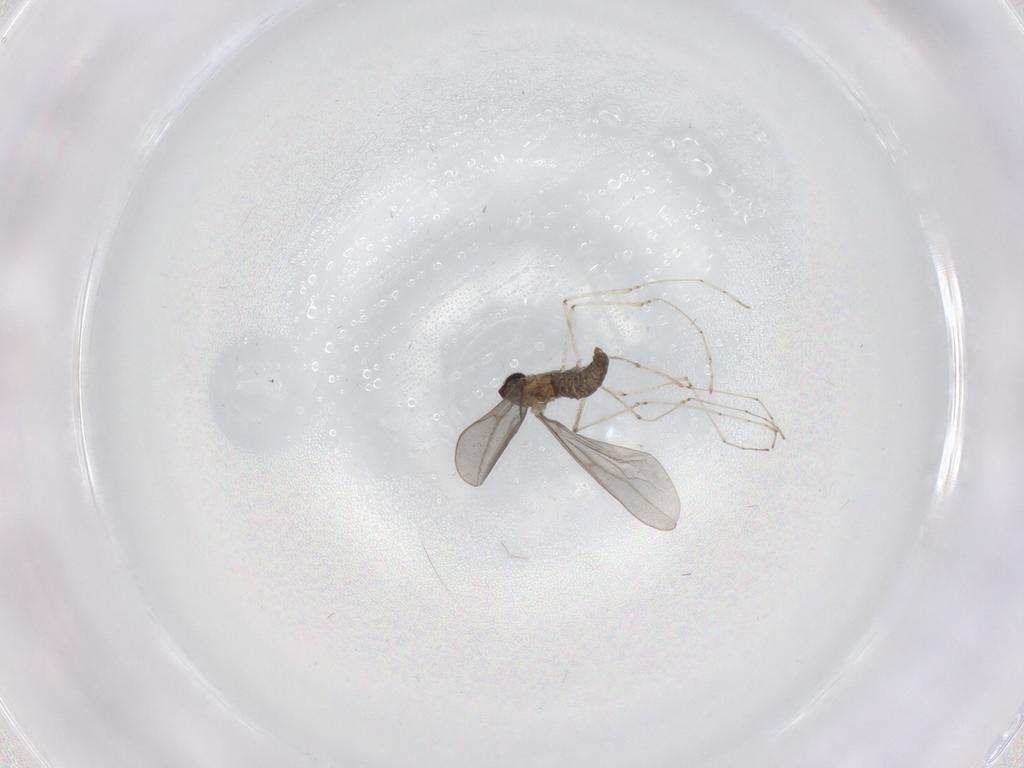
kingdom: Animalia
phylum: Arthropoda
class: Insecta
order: Diptera
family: Cecidomyiidae
